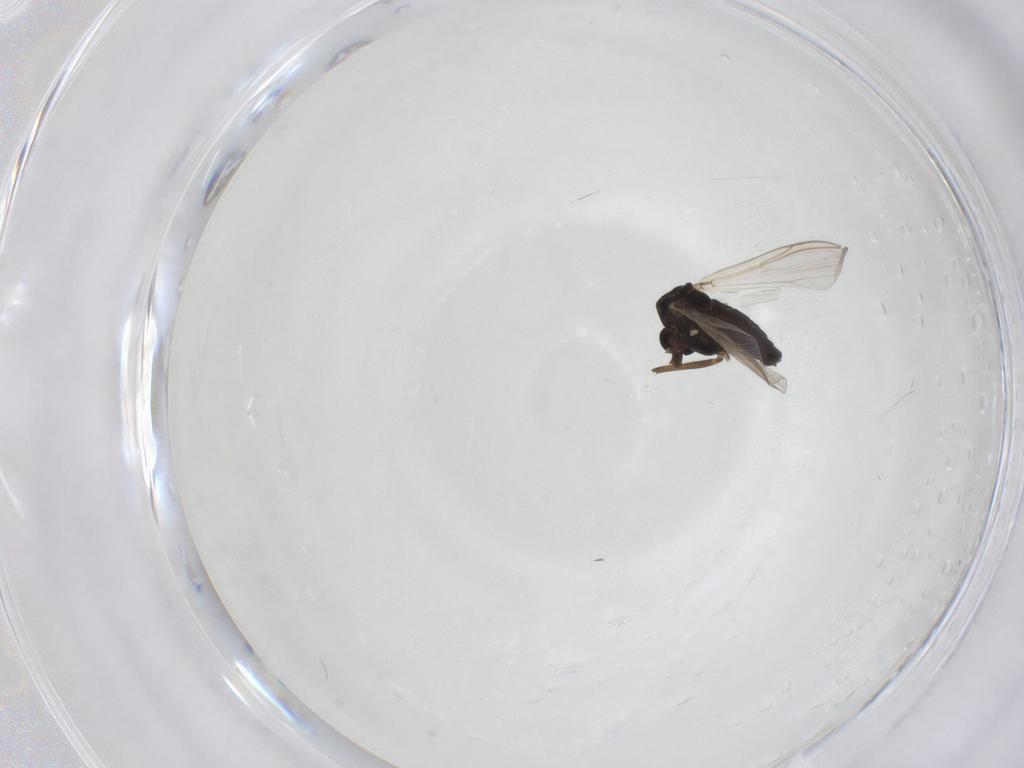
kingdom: Animalia
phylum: Arthropoda
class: Insecta
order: Diptera
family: Chironomidae
